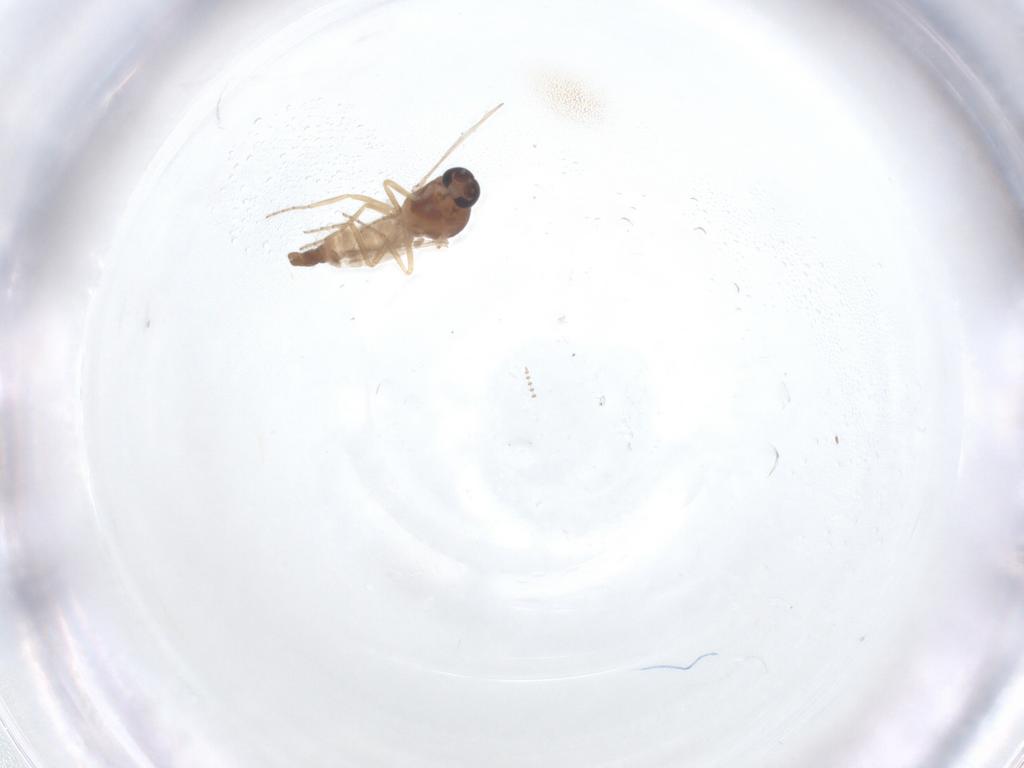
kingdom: Animalia
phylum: Arthropoda
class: Insecta
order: Diptera
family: Ceratopogonidae
